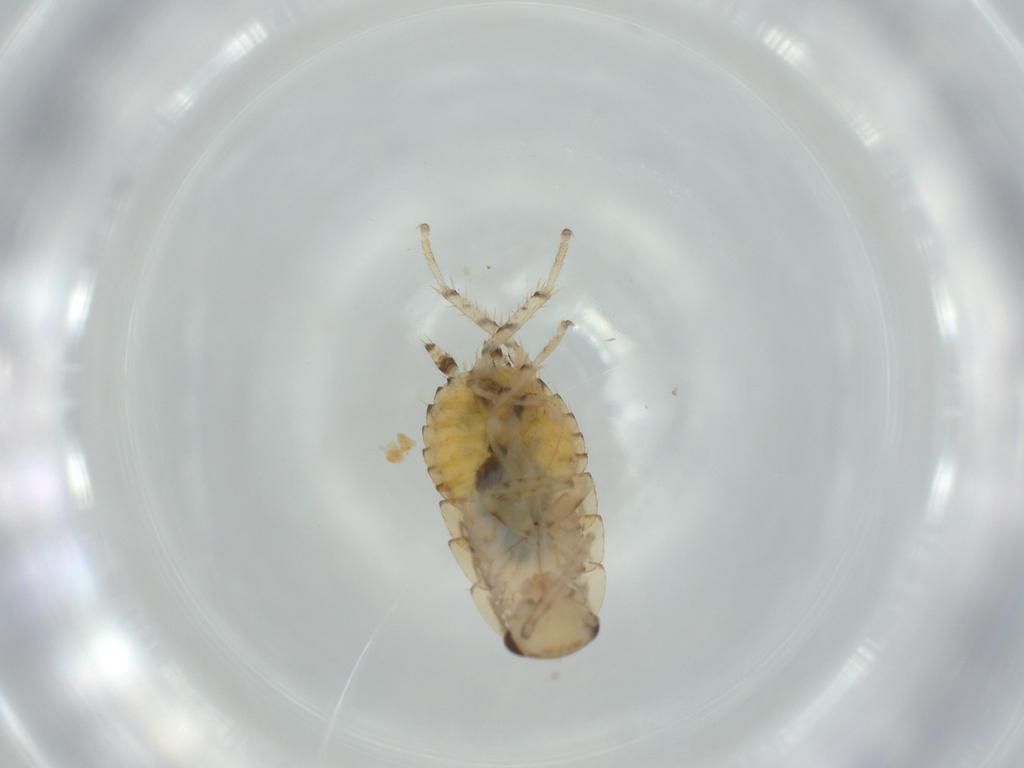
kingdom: Animalia
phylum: Arthropoda
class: Insecta
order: Blattodea
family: Ectobiidae
